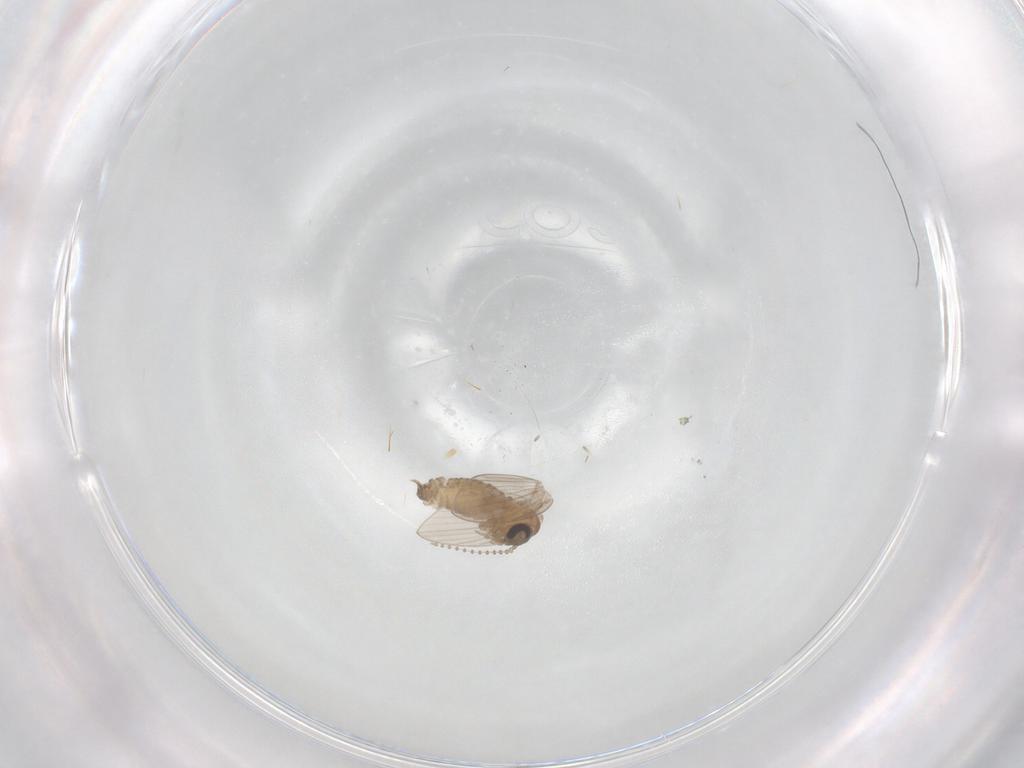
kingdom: Animalia
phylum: Arthropoda
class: Insecta
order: Diptera
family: Psychodidae
